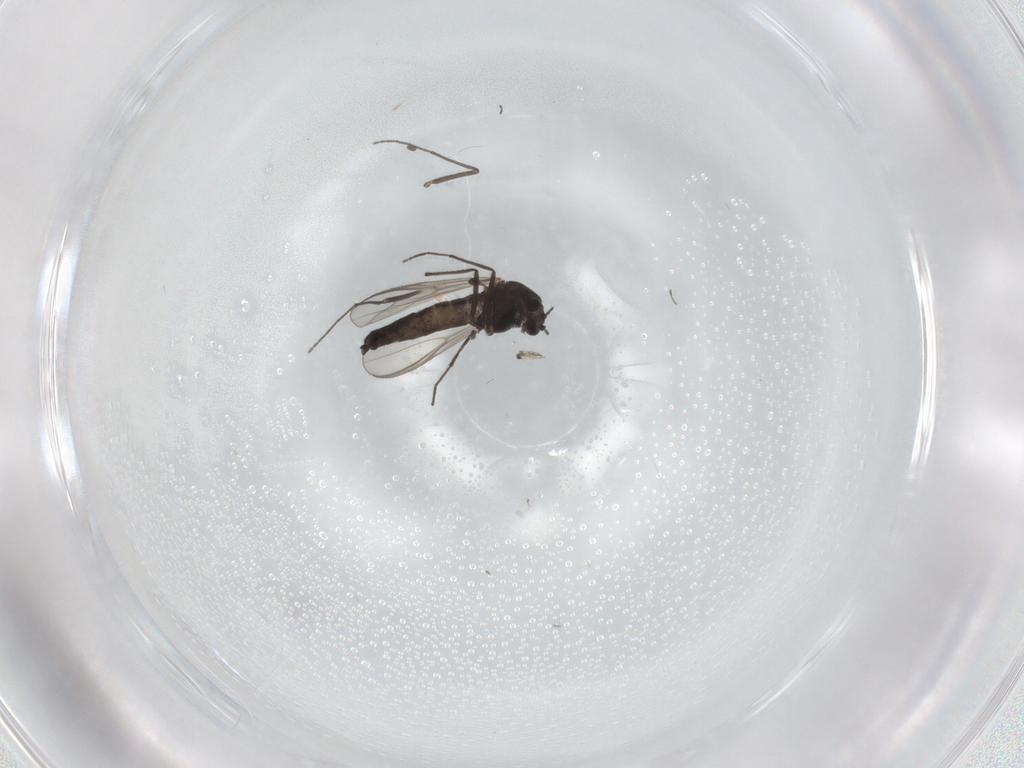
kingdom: Animalia
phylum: Arthropoda
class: Insecta
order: Diptera
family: Chironomidae
